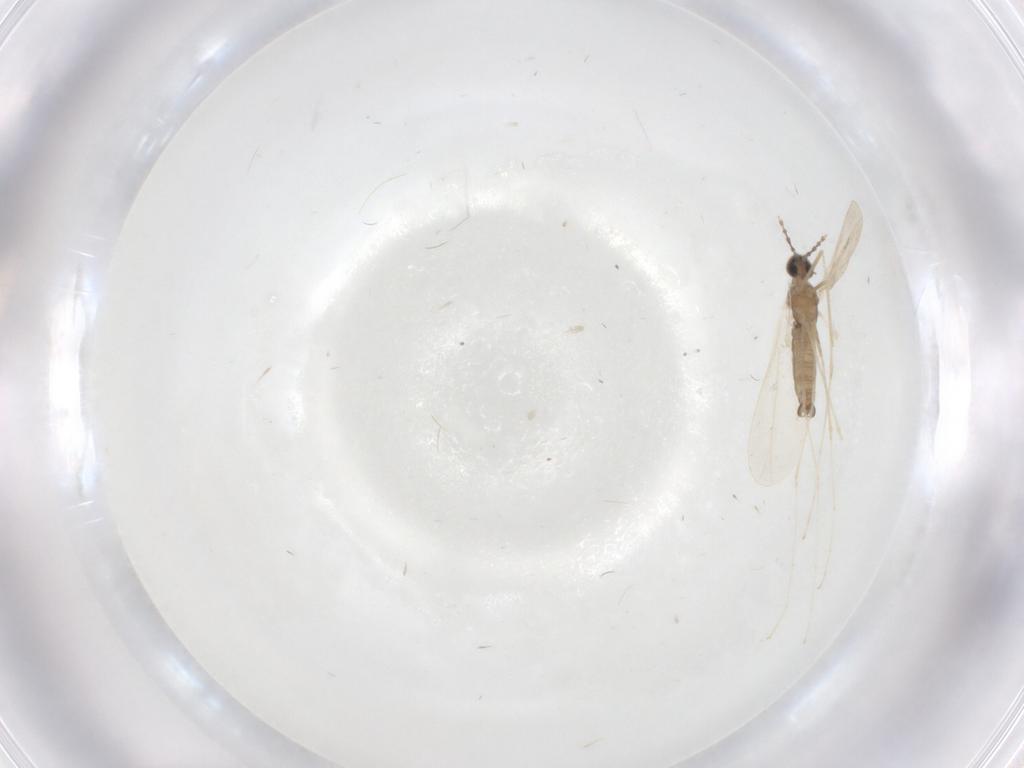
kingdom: Animalia
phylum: Arthropoda
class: Insecta
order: Diptera
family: Cecidomyiidae
